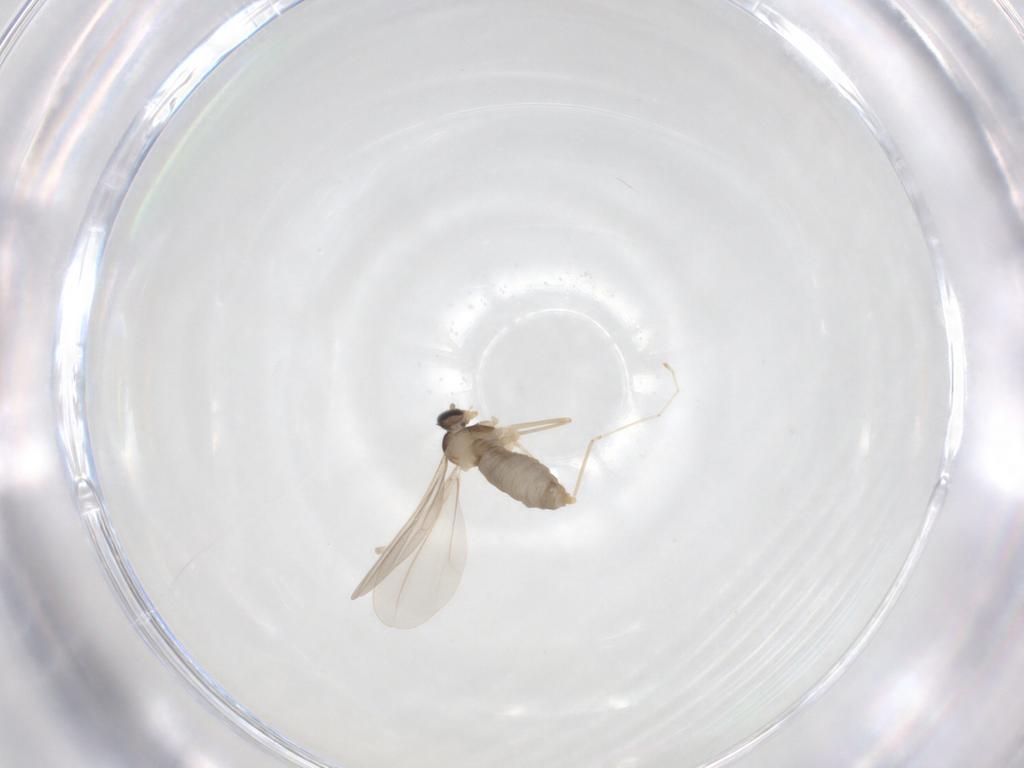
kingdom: Animalia
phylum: Arthropoda
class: Insecta
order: Diptera
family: Cecidomyiidae
